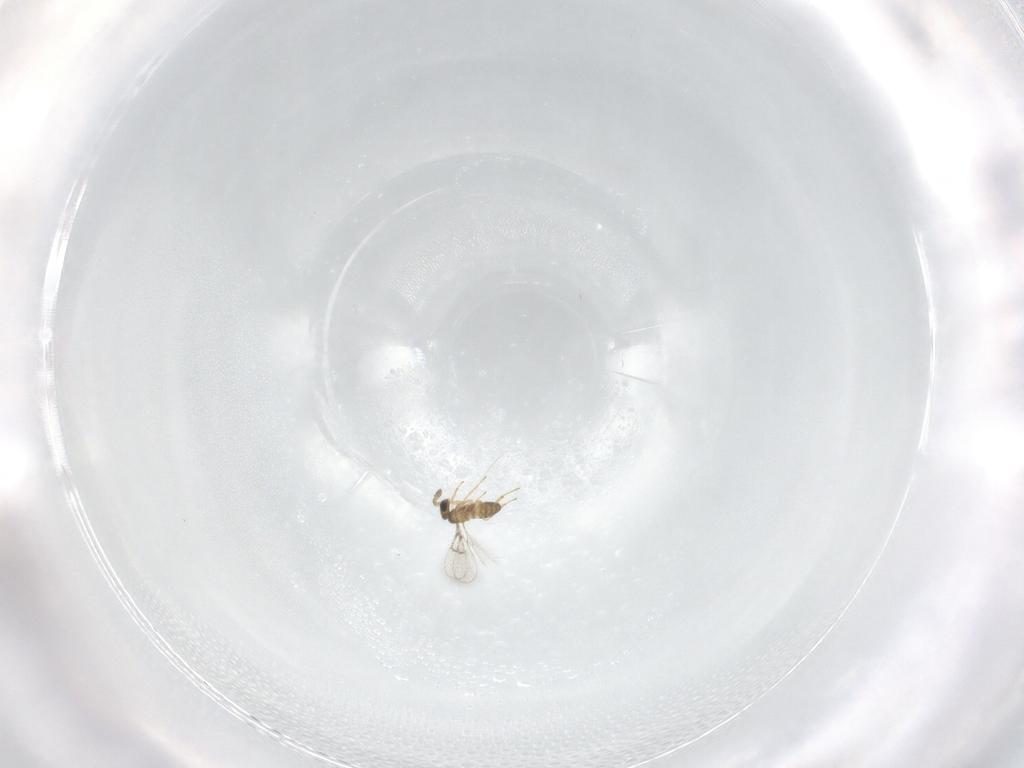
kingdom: Animalia
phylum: Arthropoda
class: Insecta
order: Hymenoptera
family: Trichogrammatidae
